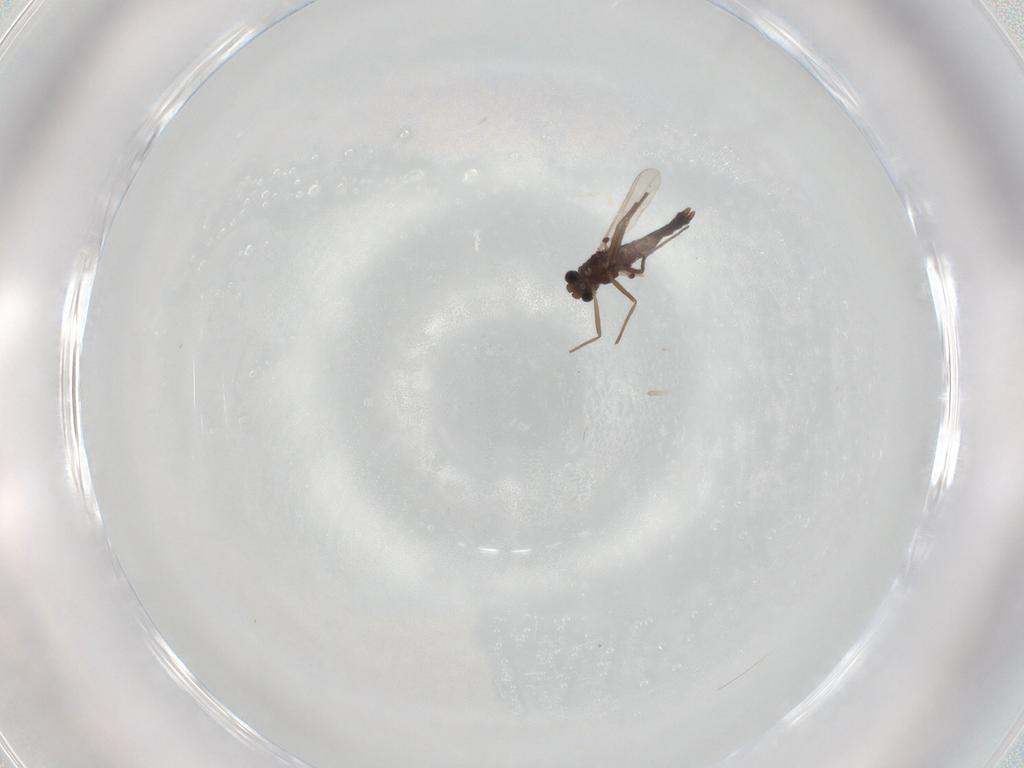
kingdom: Animalia
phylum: Arthropoda
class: Insecta
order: Diptera
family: Chironomidae
